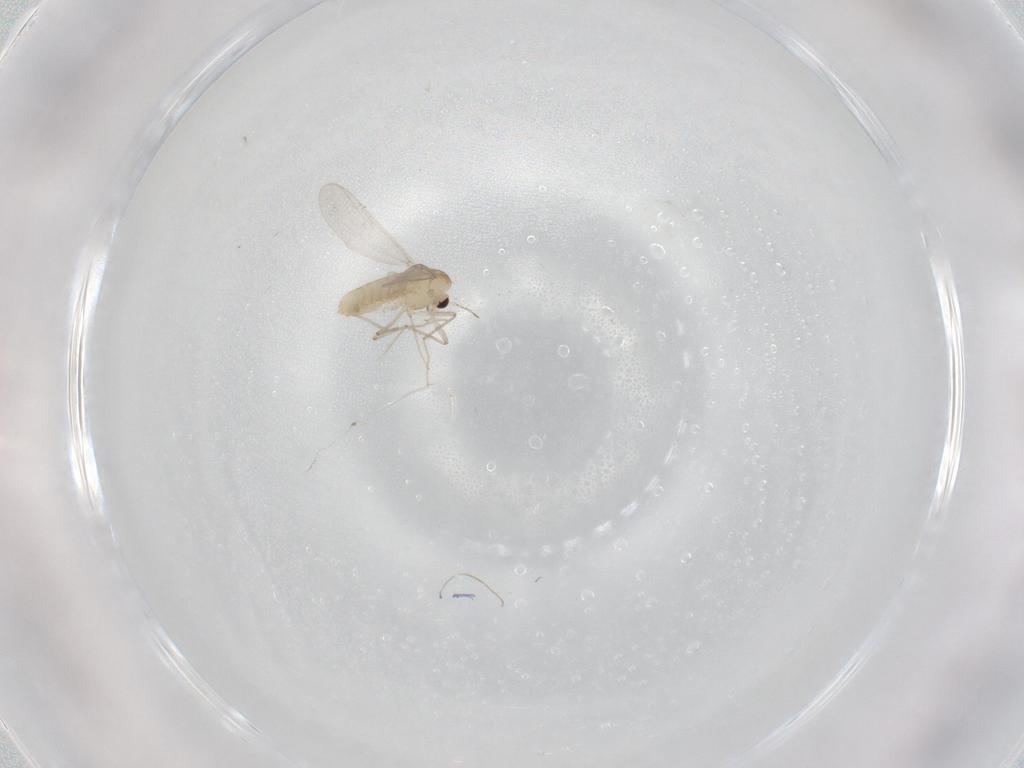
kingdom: Animalia
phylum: Arthropoda
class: Insecta
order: Diptera
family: Chironomidae
